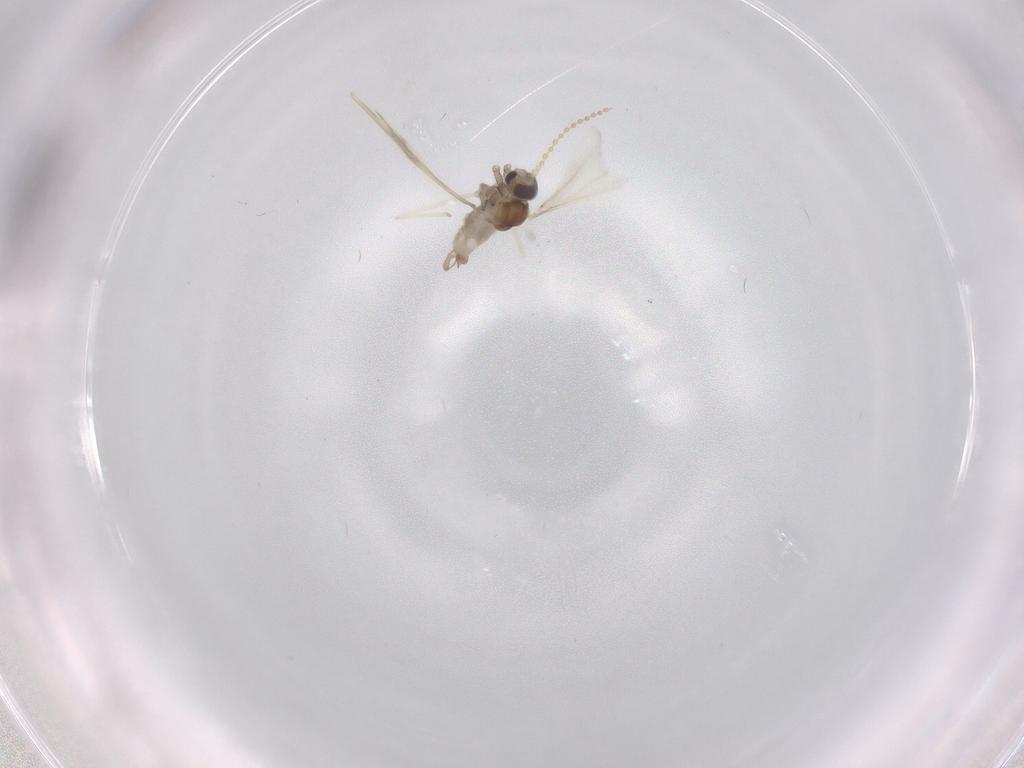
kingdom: Animalia
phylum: Arthropoda
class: Insecta
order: Diptera
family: Cecidomyiidae
